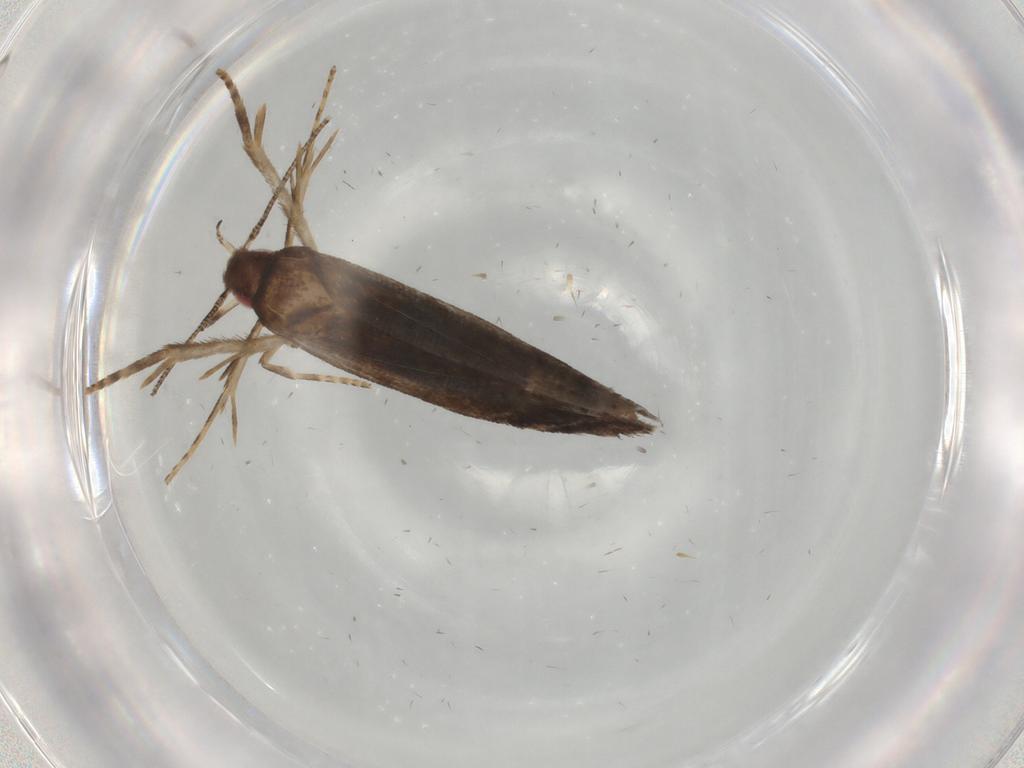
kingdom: Animalia
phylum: Arthropoda
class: Insecta
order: Lepidoptera
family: Gelechiidae
